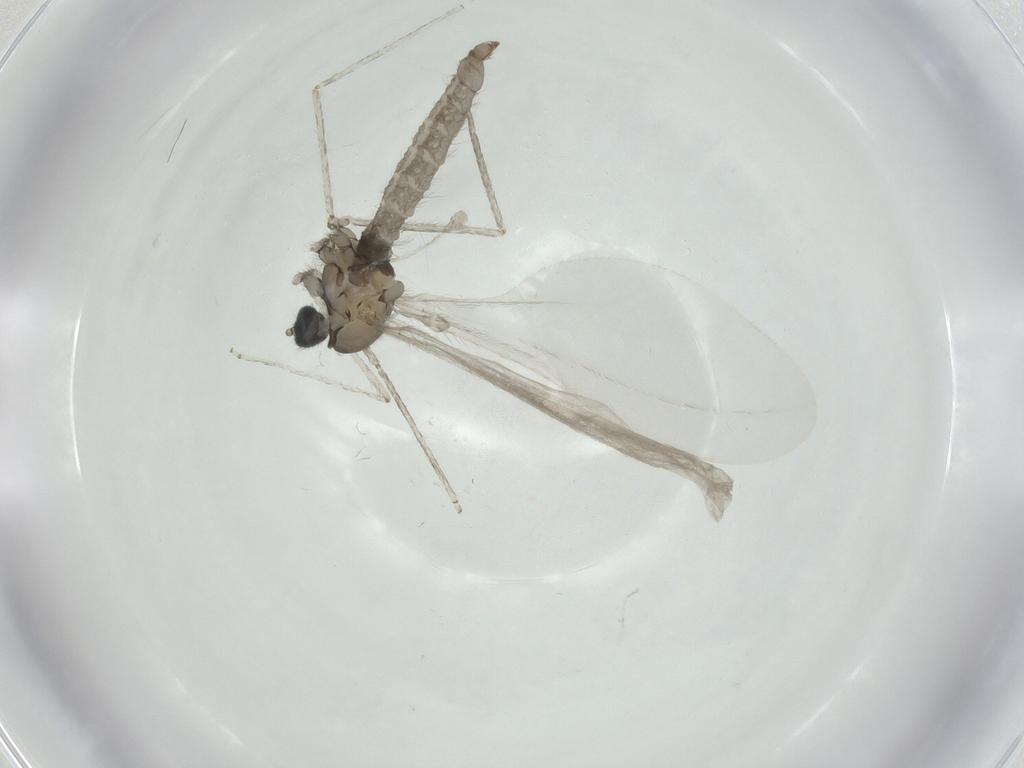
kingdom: Animalia
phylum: Arthropoda
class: Insecta
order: Diptera
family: Cecidomyiidae
